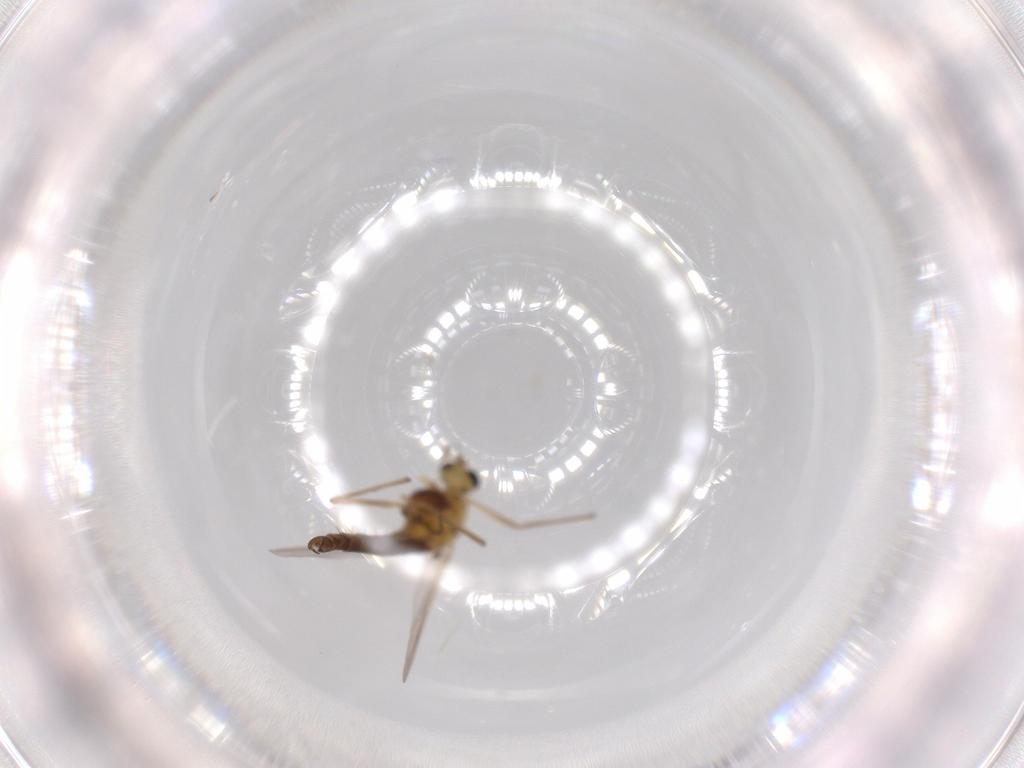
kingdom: Animalia
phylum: Arthropoda
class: Insecta
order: Diptera
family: Chironomidae
